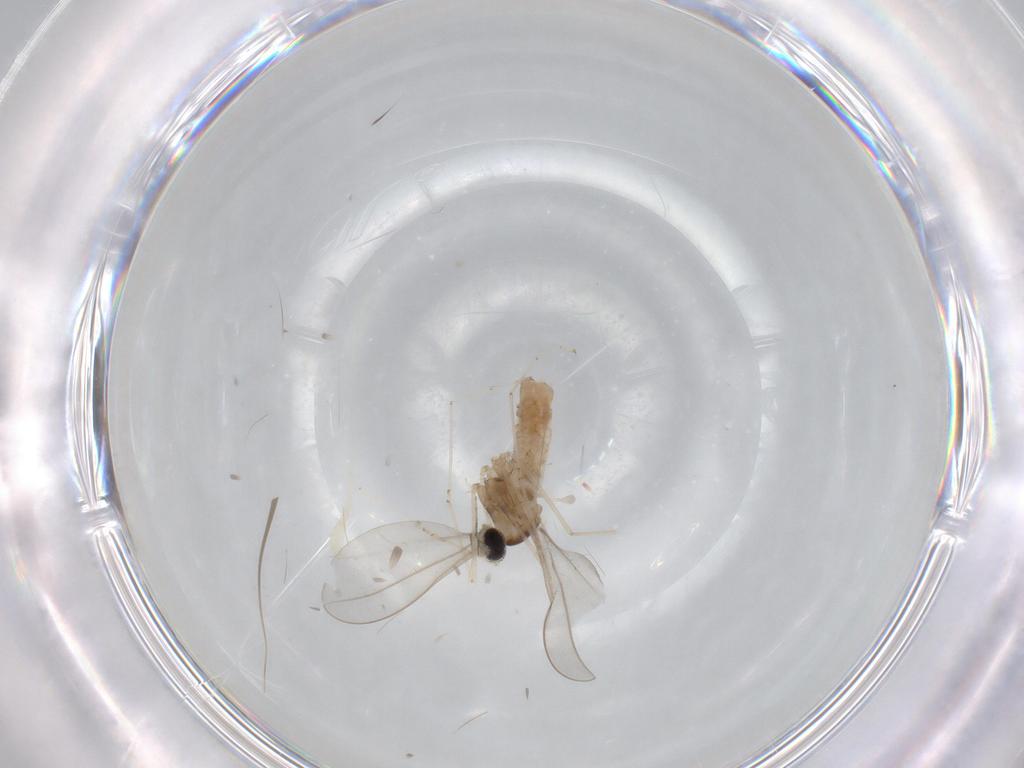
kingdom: Animalia
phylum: Arthropoda
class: Insecta
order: Diptera
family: Cecidomyiidae
